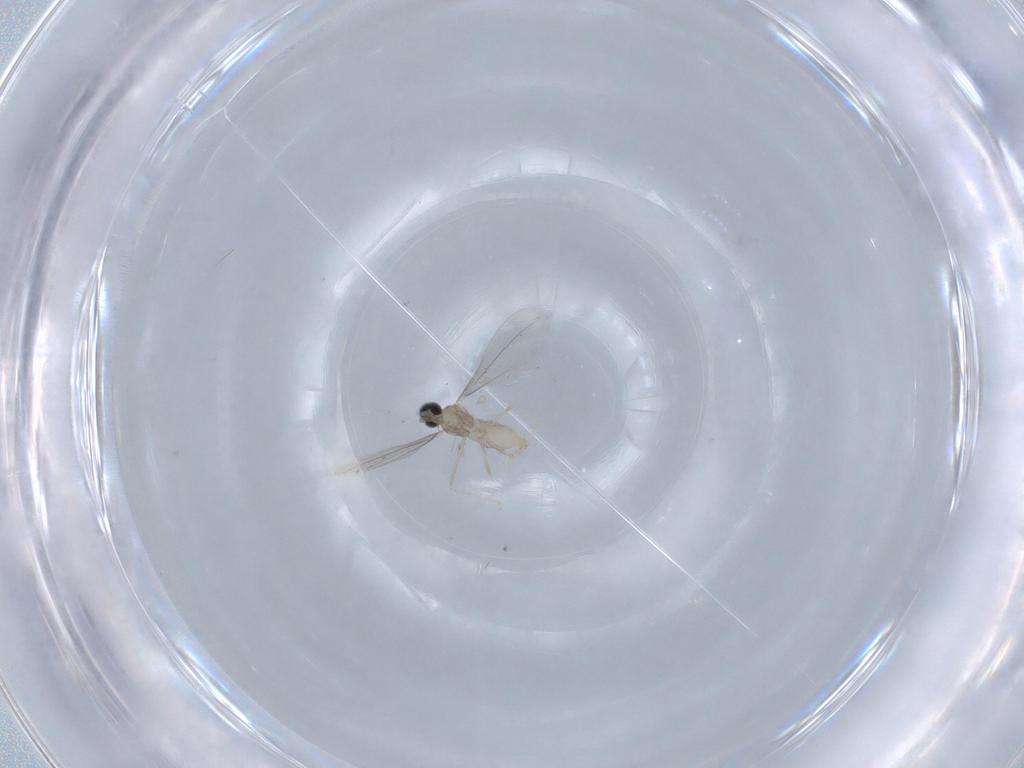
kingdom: Animalia
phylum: Arthropoda
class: Insecta
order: Diptera
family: Cecidomyiidae
